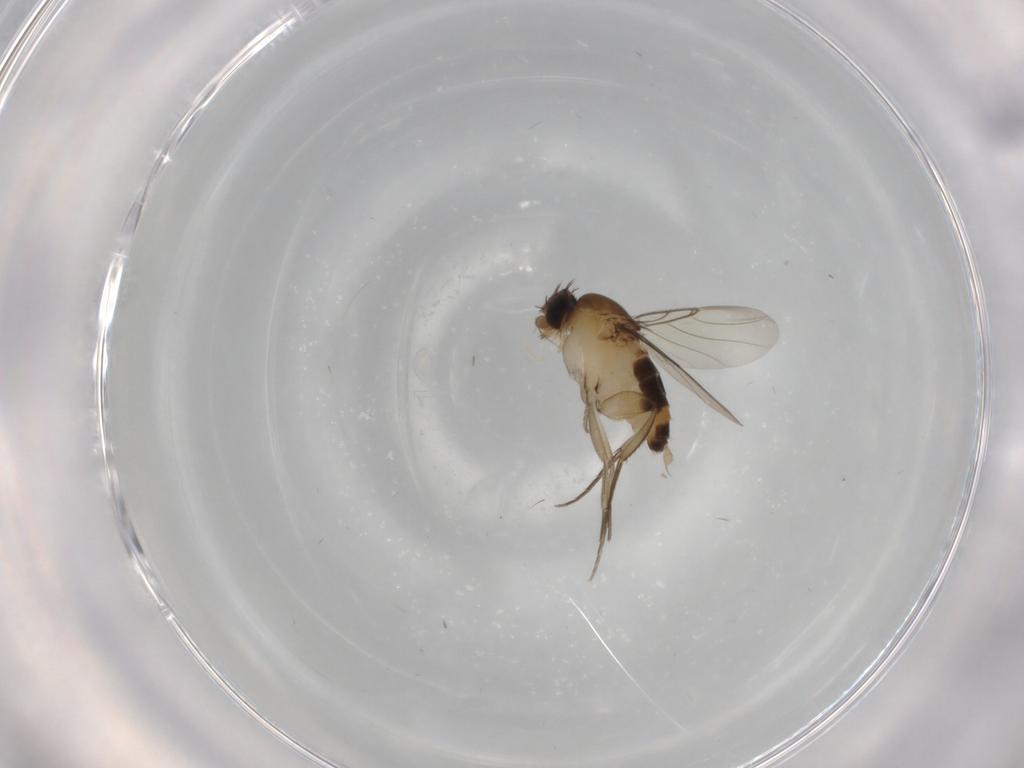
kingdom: Animalia
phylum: Arthropoda
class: Insecta
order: Diptera
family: Phoridae
